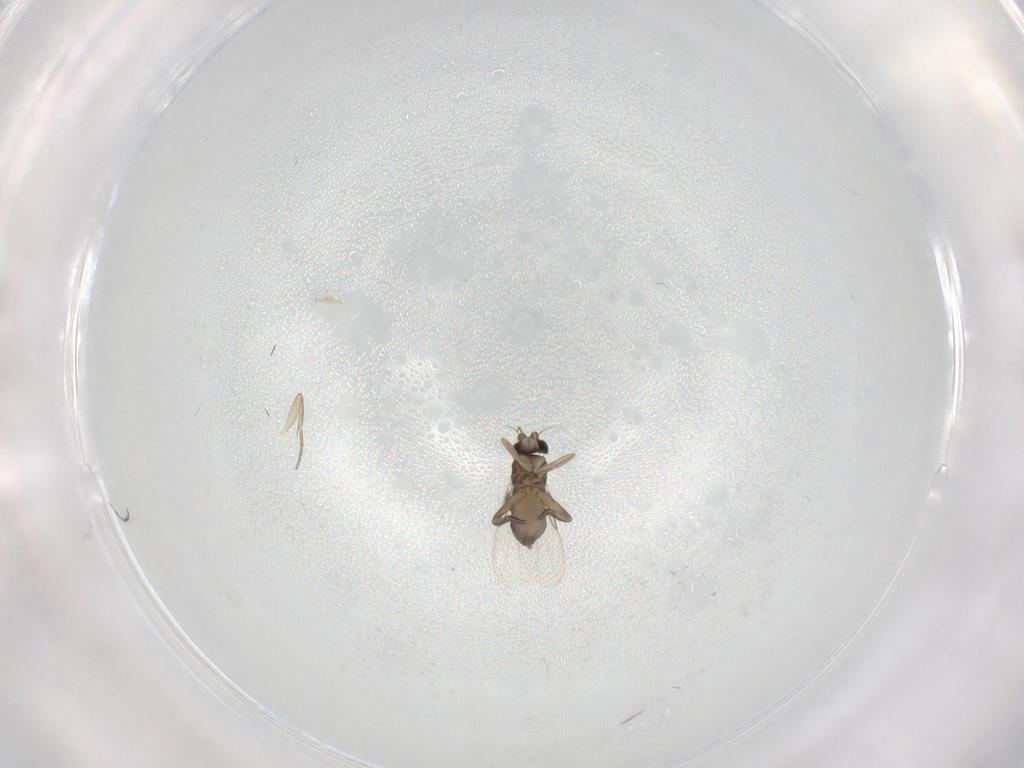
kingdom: Animalia
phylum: Arthropoda
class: Insecta
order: Diptera
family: Phoridae
